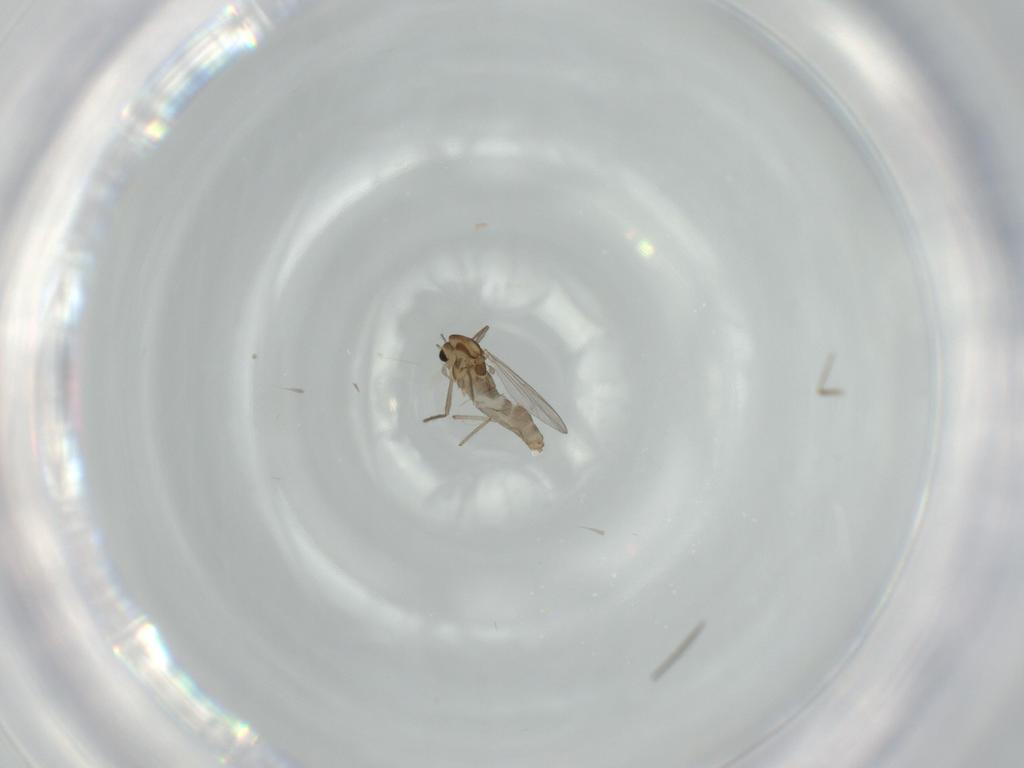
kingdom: Animalia
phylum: Arthropoda
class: Insecta
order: Diptera
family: Chironomidae
